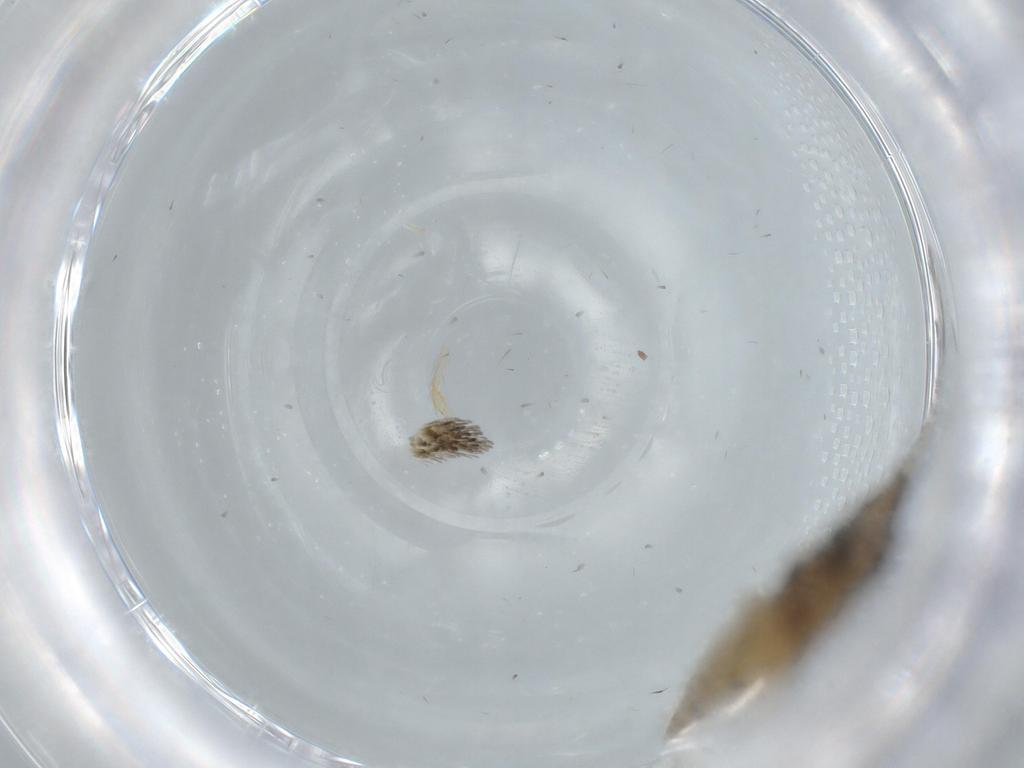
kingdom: Animalia
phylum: Arthropoda
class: Insecta
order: Lepidoptera
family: Tineidae
